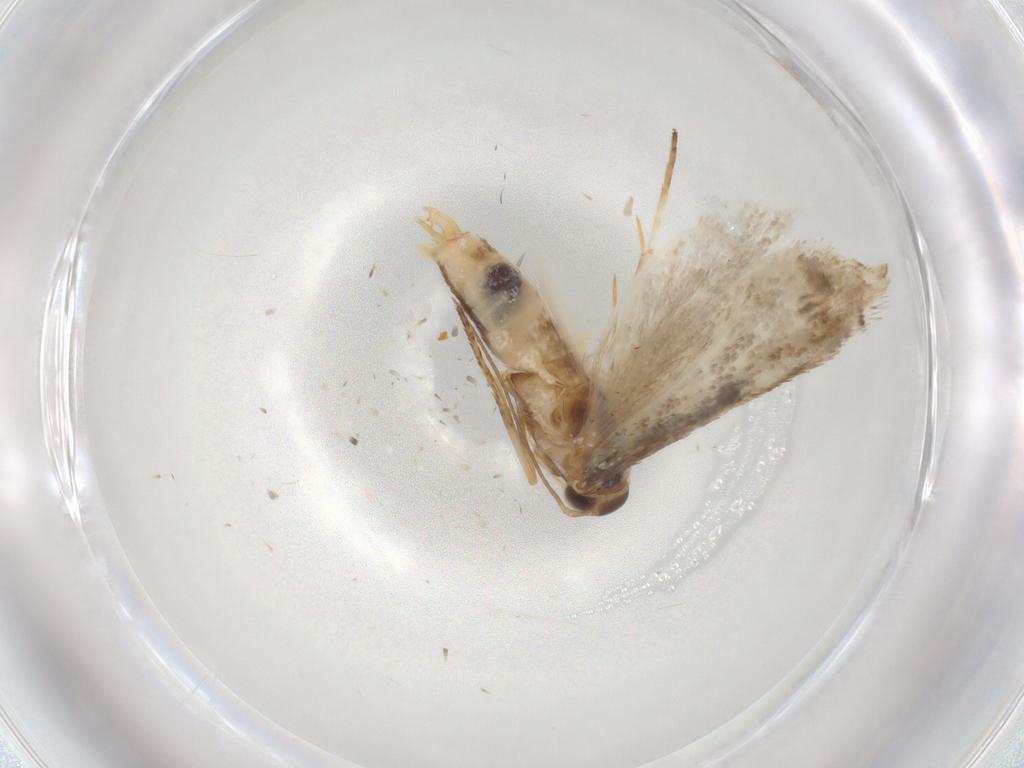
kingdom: Animalia
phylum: Arthropoda
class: Insecta
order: Lepidoptera
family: Gelechiidae
